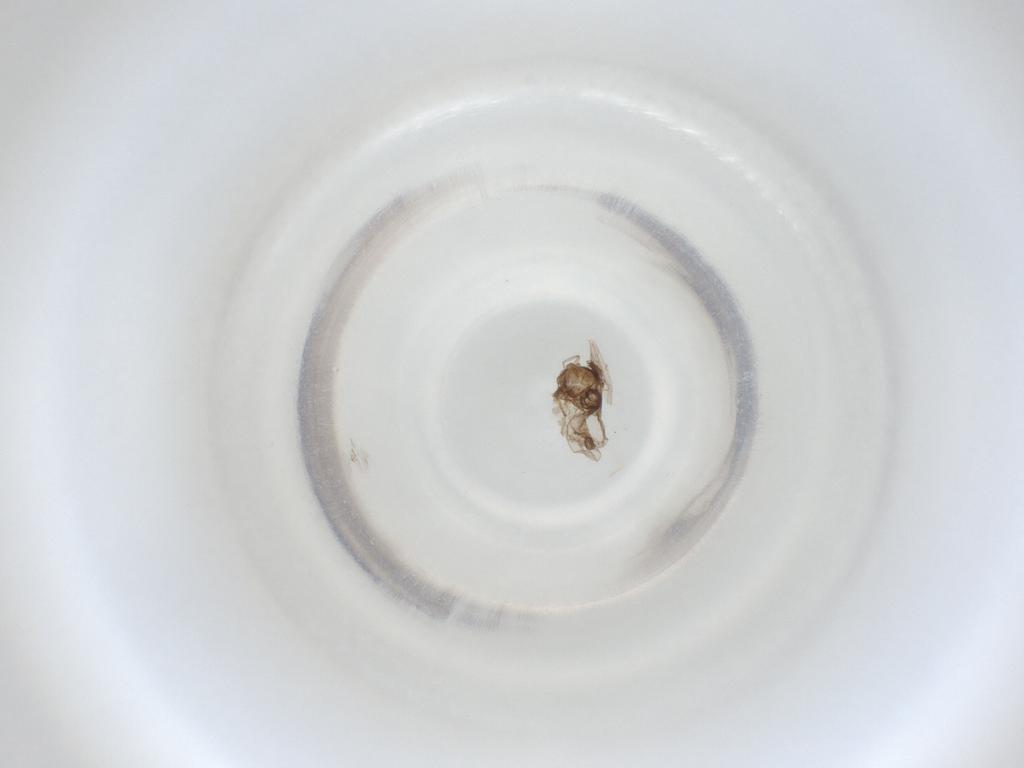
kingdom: Animalia
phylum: Arthropoda
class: Insecta
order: Diptera
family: Cecidomyiidae
